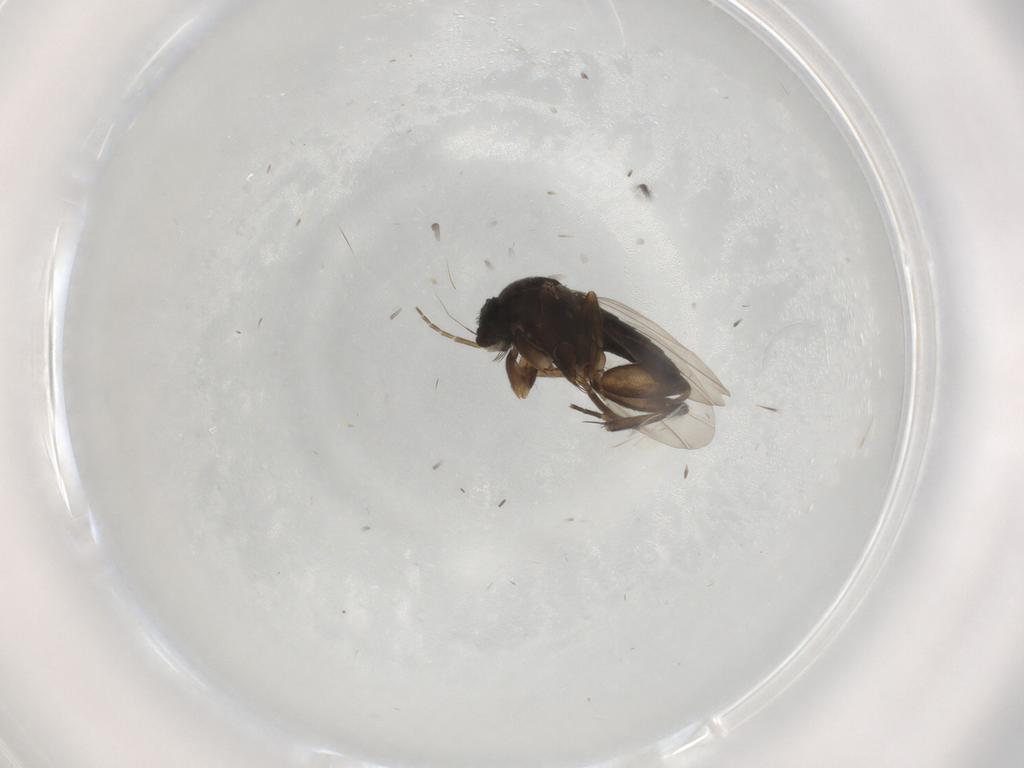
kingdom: Animalia
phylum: Arthropoda
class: Insecta
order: Diptera
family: Phoridae
